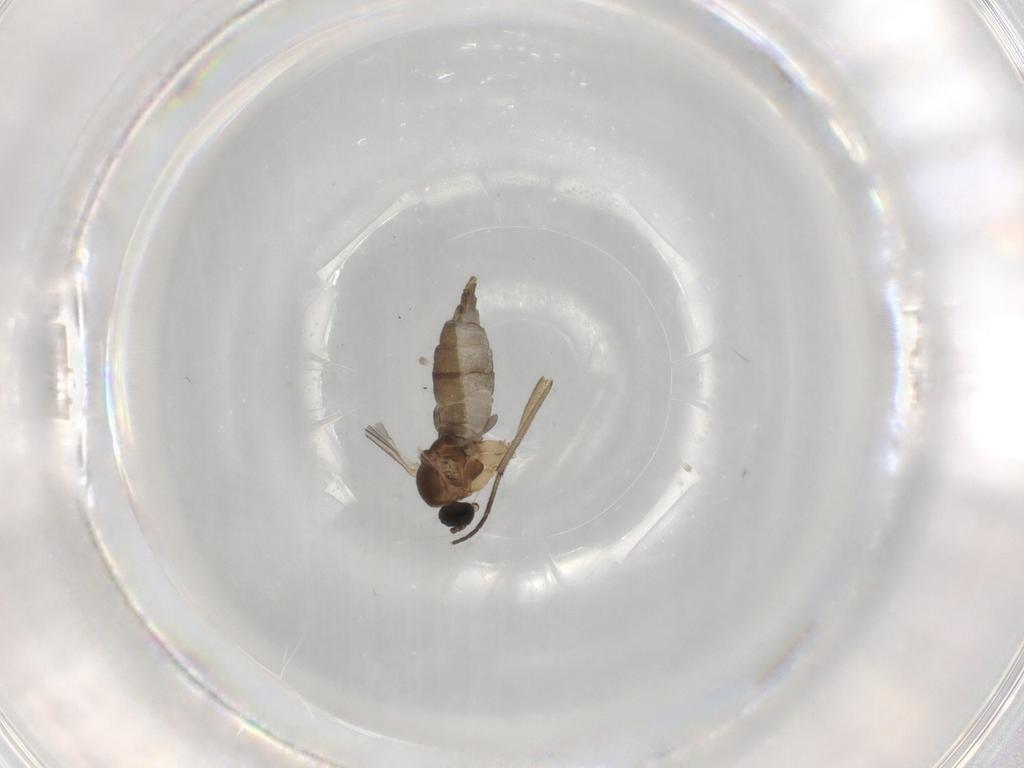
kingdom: Animalia
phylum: Arthropoda
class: Insecta
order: Diptera
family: Sciaridae
